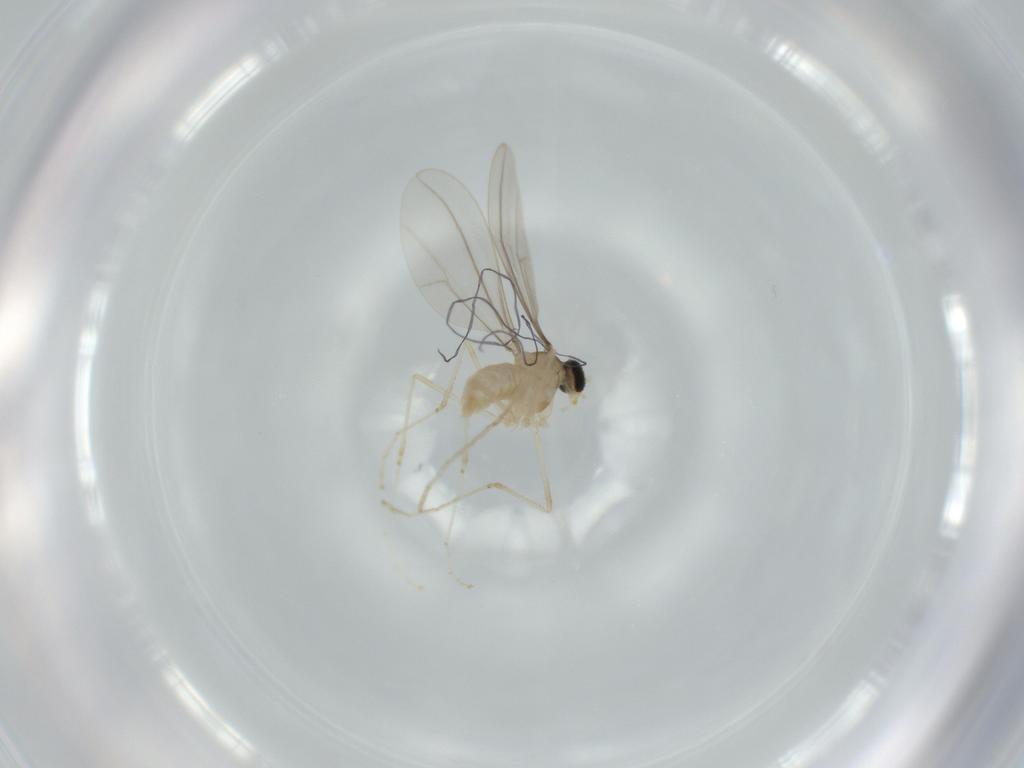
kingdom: Animalia
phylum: Arthropoda
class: Insecta
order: Diptera
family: Cecidomyiidae
